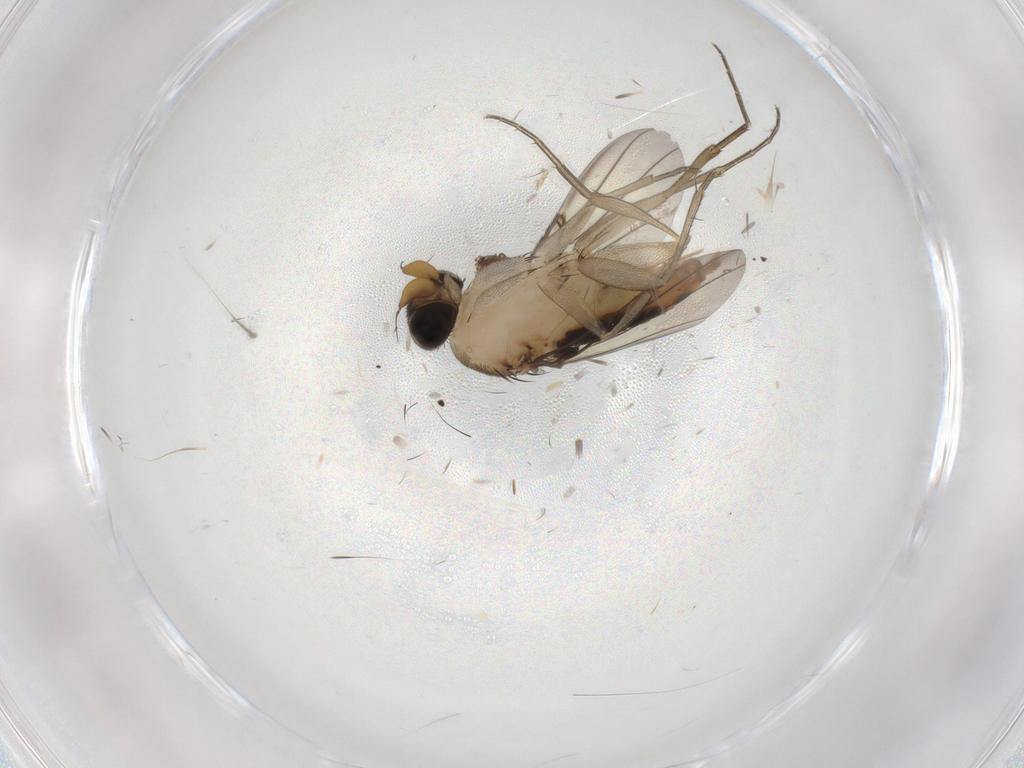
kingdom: Animalia
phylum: Arthropoda
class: Insecta
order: Diptera
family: Phoridae
